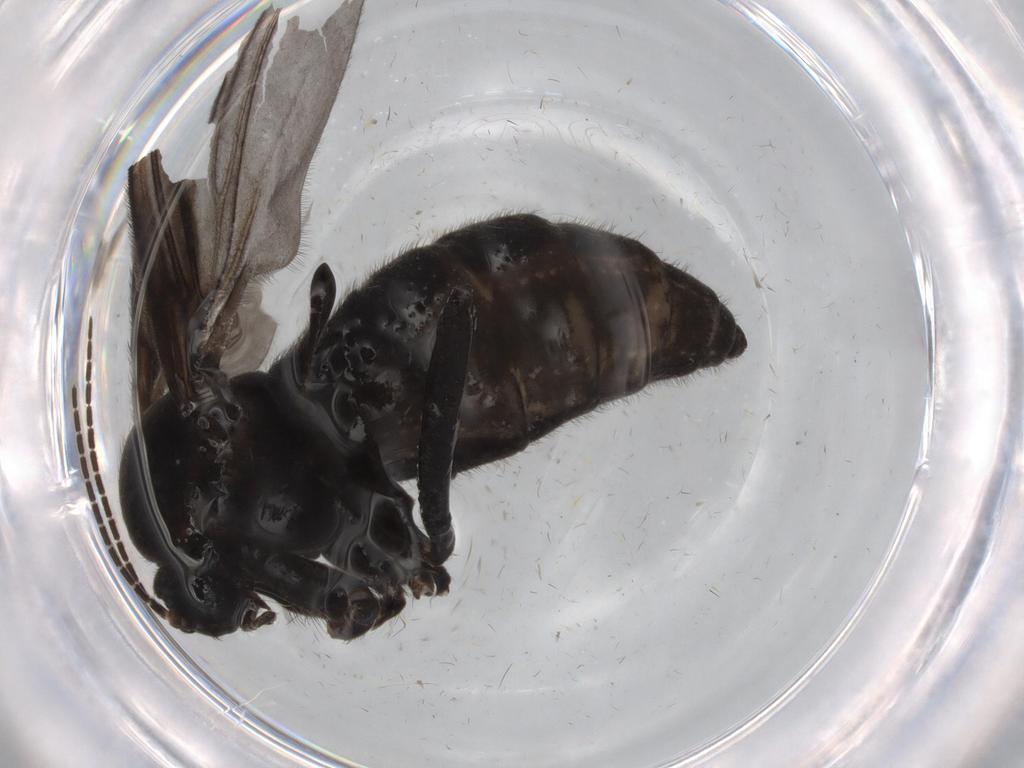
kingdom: Animalia
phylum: Arthropoda
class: Insecta
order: Diptera
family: Sciaridae
